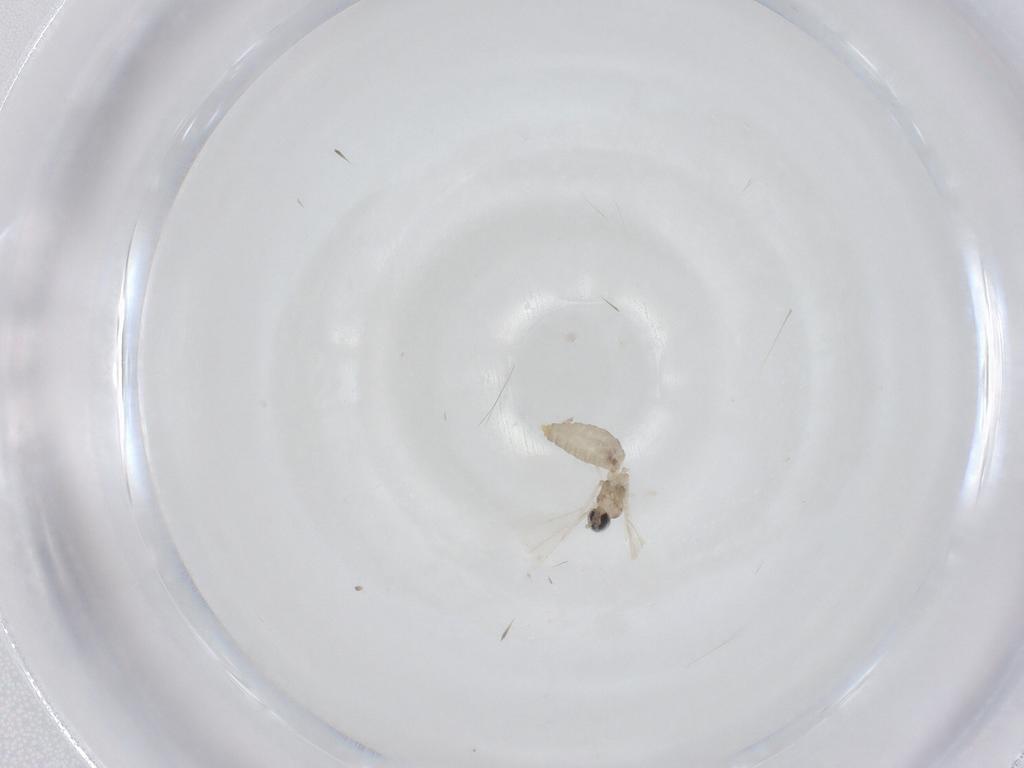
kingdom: Animalia
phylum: Arthropoda
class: Insecta
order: Diptera
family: Cecidomyiidae
